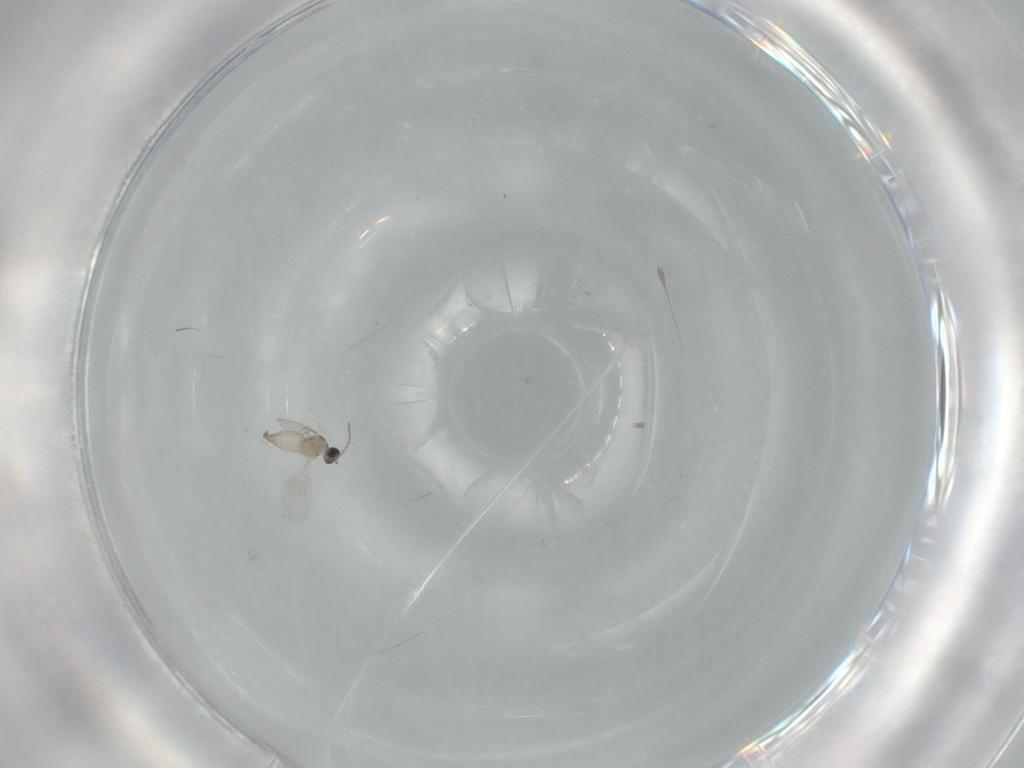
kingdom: Animalia
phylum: Arthropoda
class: Insecta
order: Diptera
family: Cecidomyiidae
